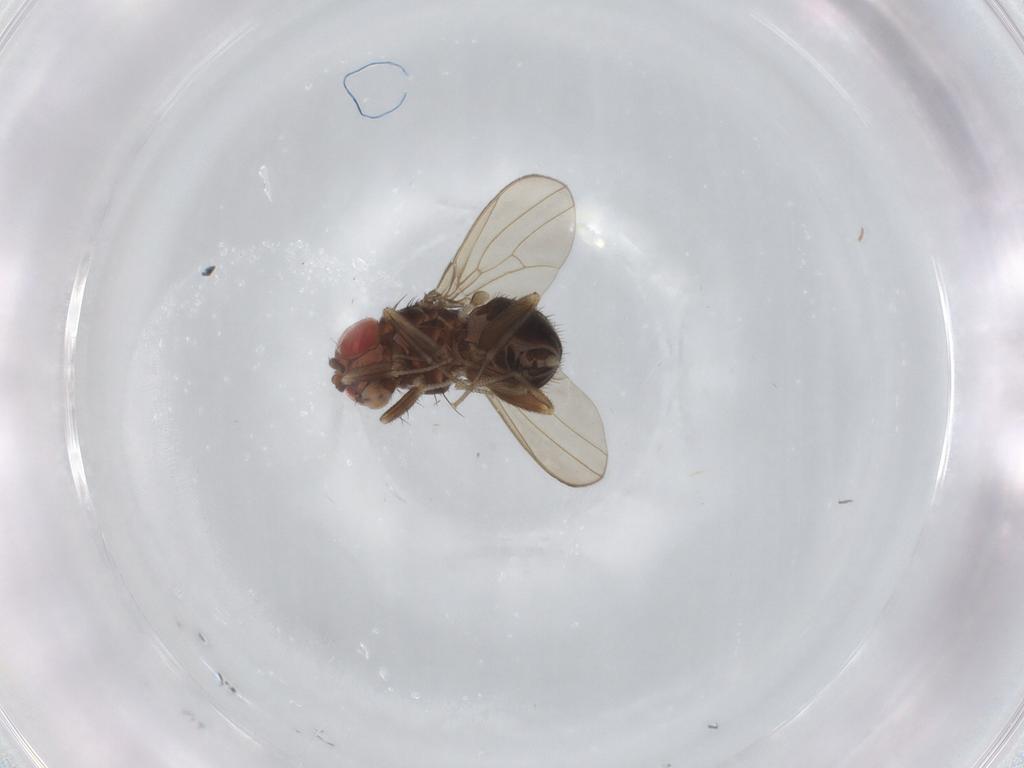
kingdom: Animalia
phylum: Arthropoda
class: Insecta
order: Diptera
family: Drosophilidae
